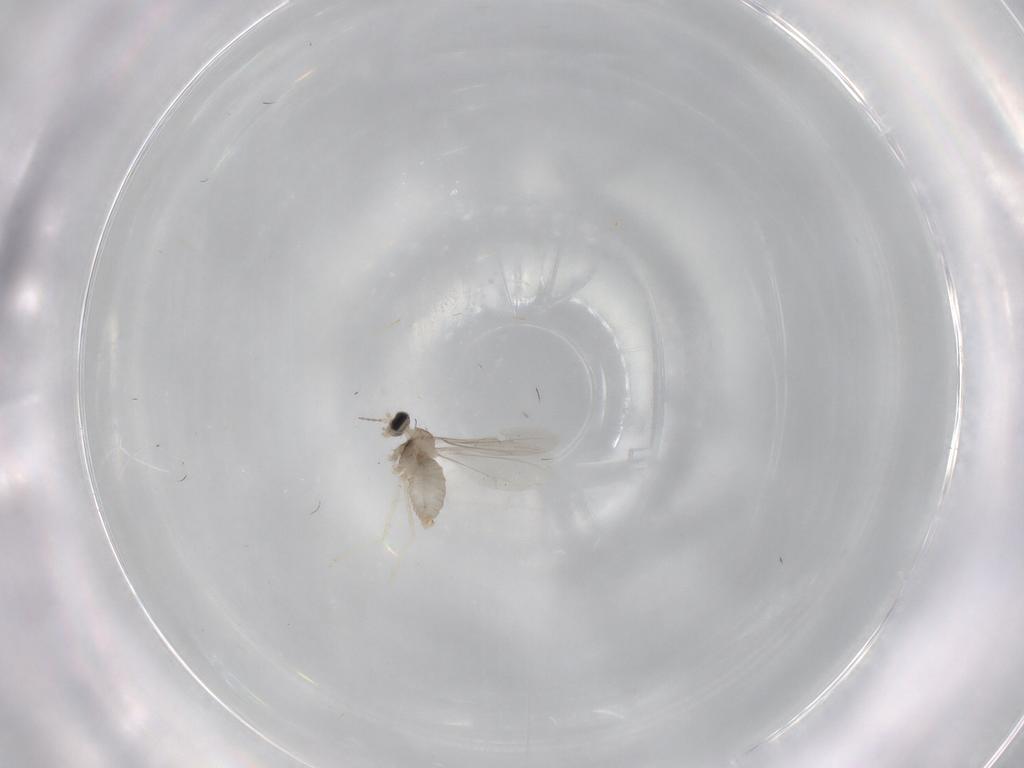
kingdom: Animalia
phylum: Arthropoda
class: Insecta
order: Diptera
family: Cecidomyiidae
